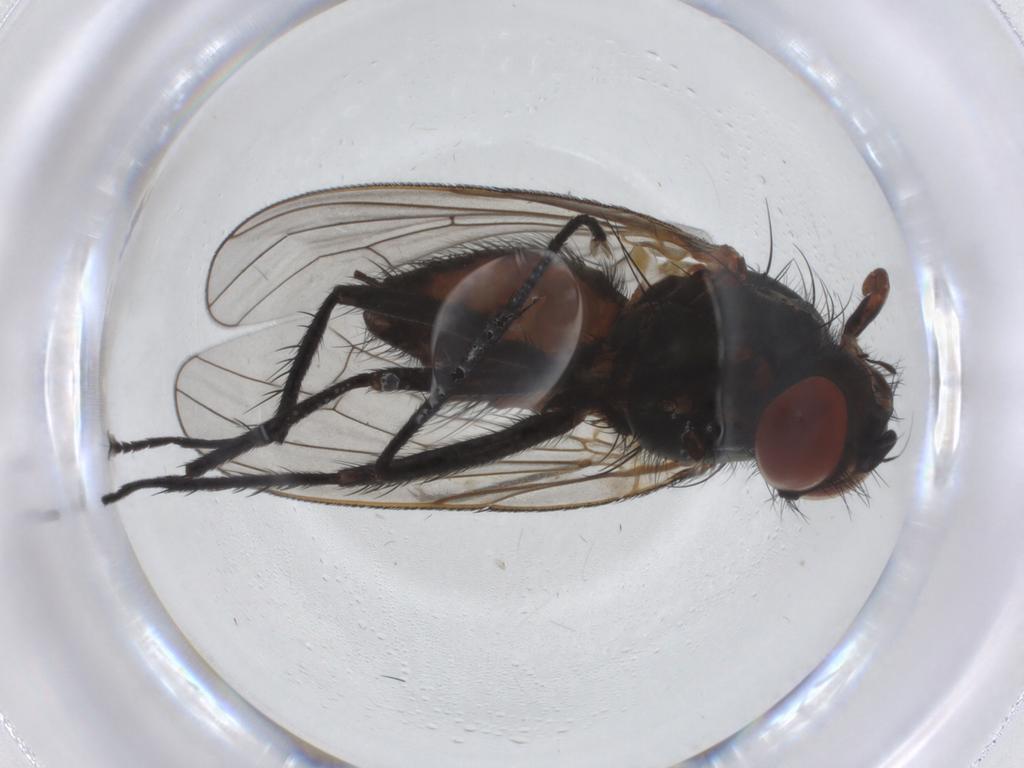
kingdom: Animalia
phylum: Arthropoda
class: Insecta
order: Diptera
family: Anthomyiidae
